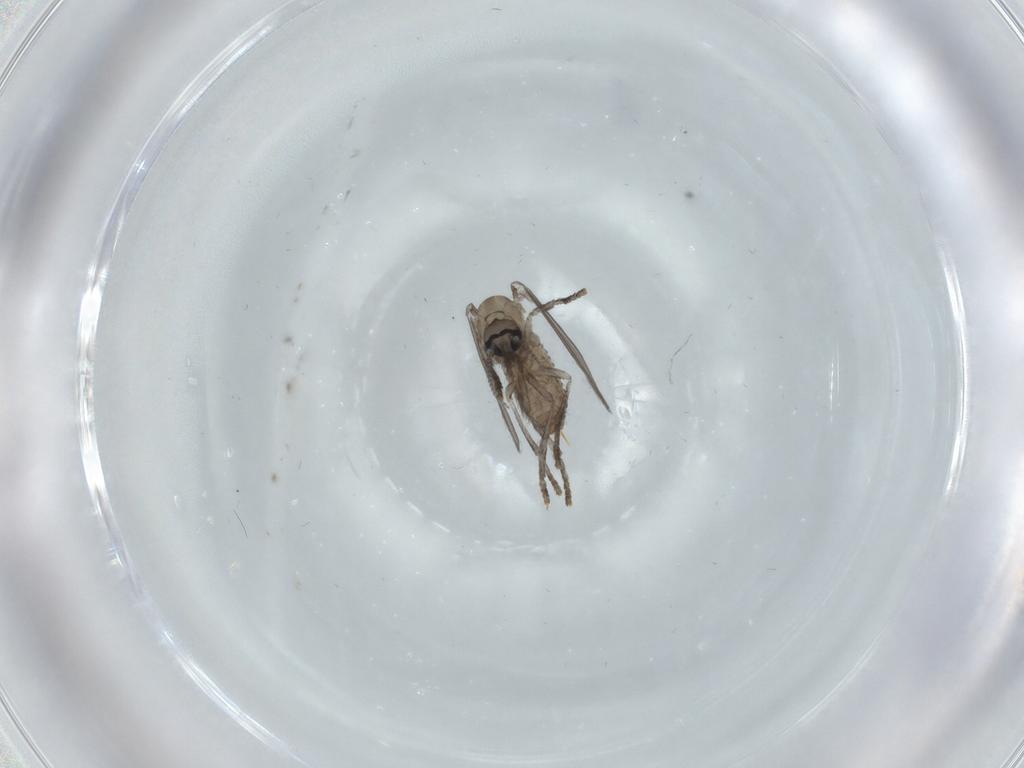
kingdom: Animalia
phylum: Arthropoda
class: Insecta
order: Diptera
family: Psychodidae
